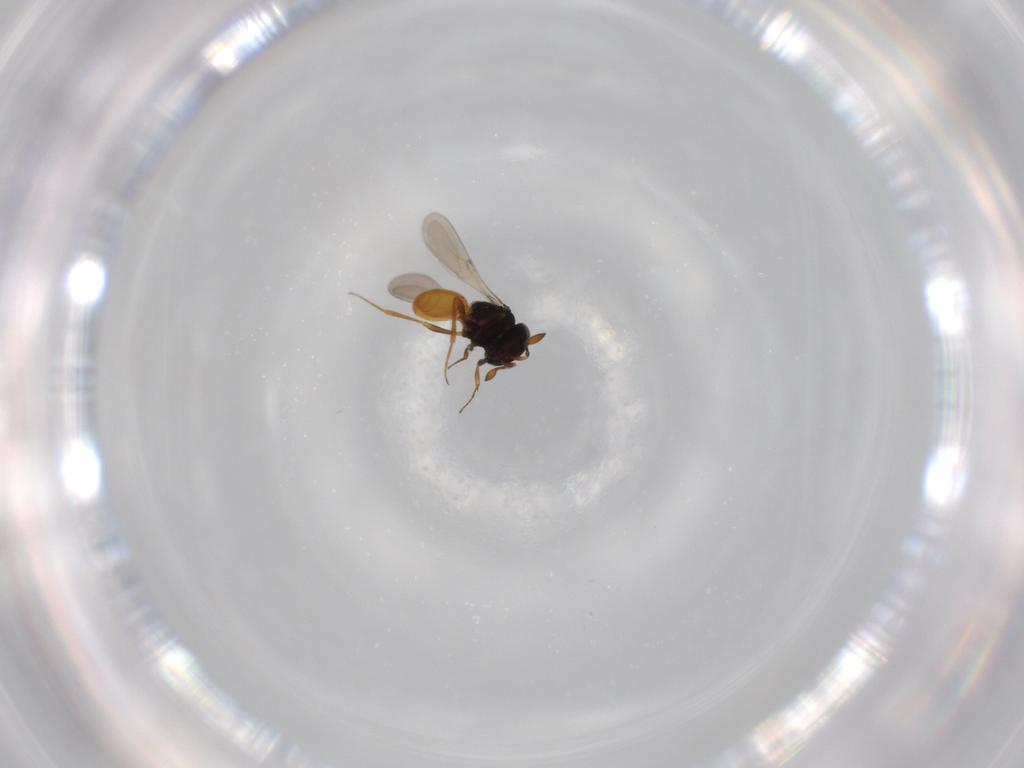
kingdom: Animalia
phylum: Arthropoda
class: Insecta
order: Hymenoptera
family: Scelionidae
